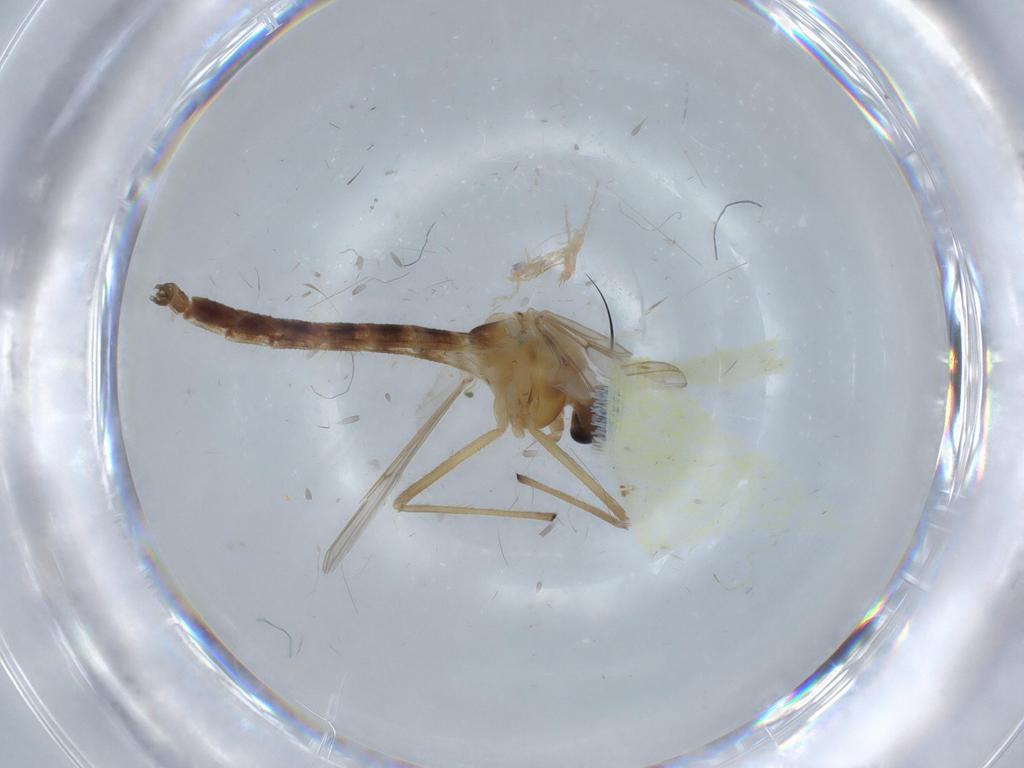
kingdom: Animalia
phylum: Arthropoda
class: Insecta
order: Diptera
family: Chironomidae
